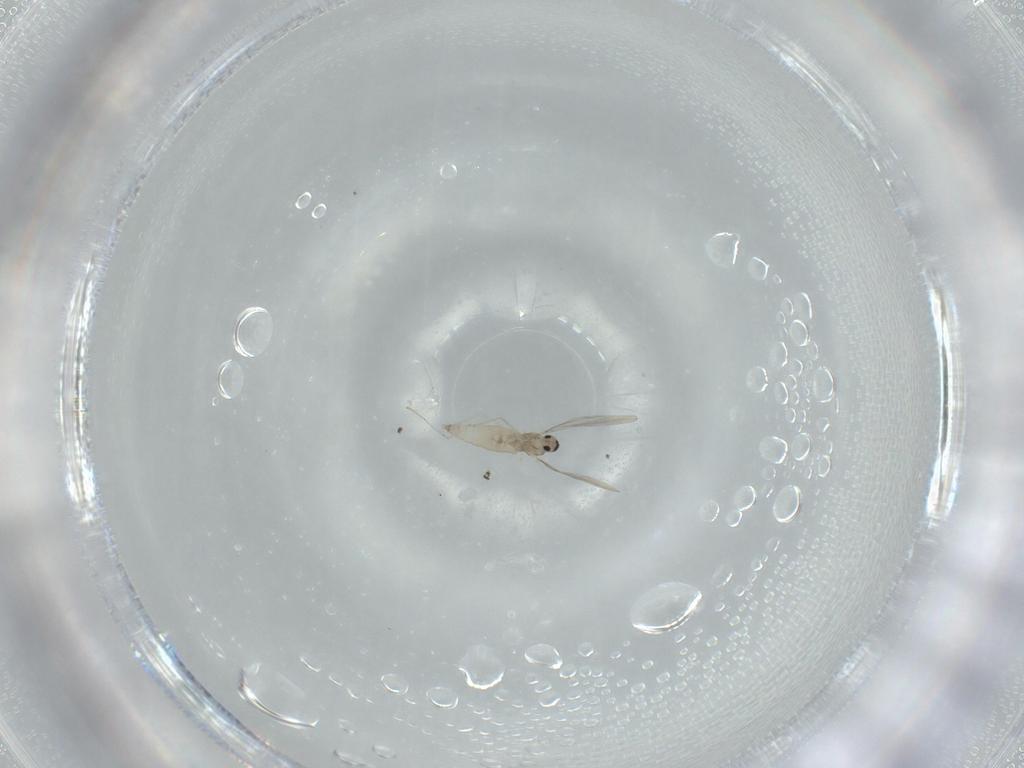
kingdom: Animalia
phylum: Arthropoda
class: Insecta
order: Diptera
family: Cecidomyiidae
